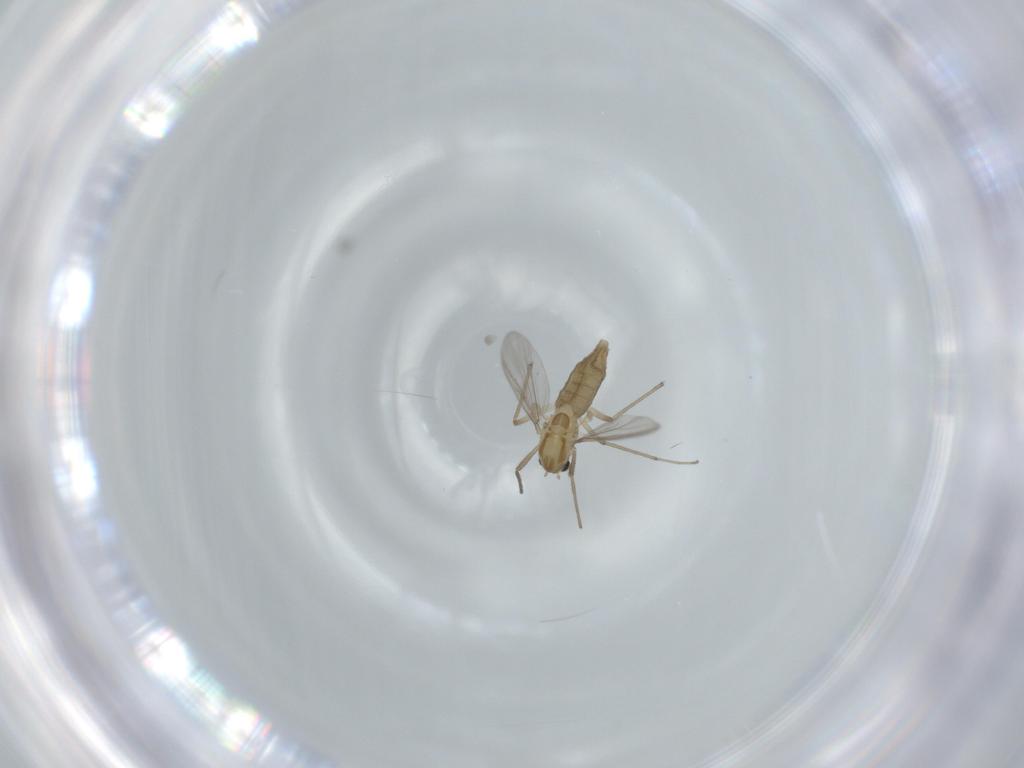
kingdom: Animalia
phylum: Arthropoda
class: Insecta
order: Diptera
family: Chironomidae
